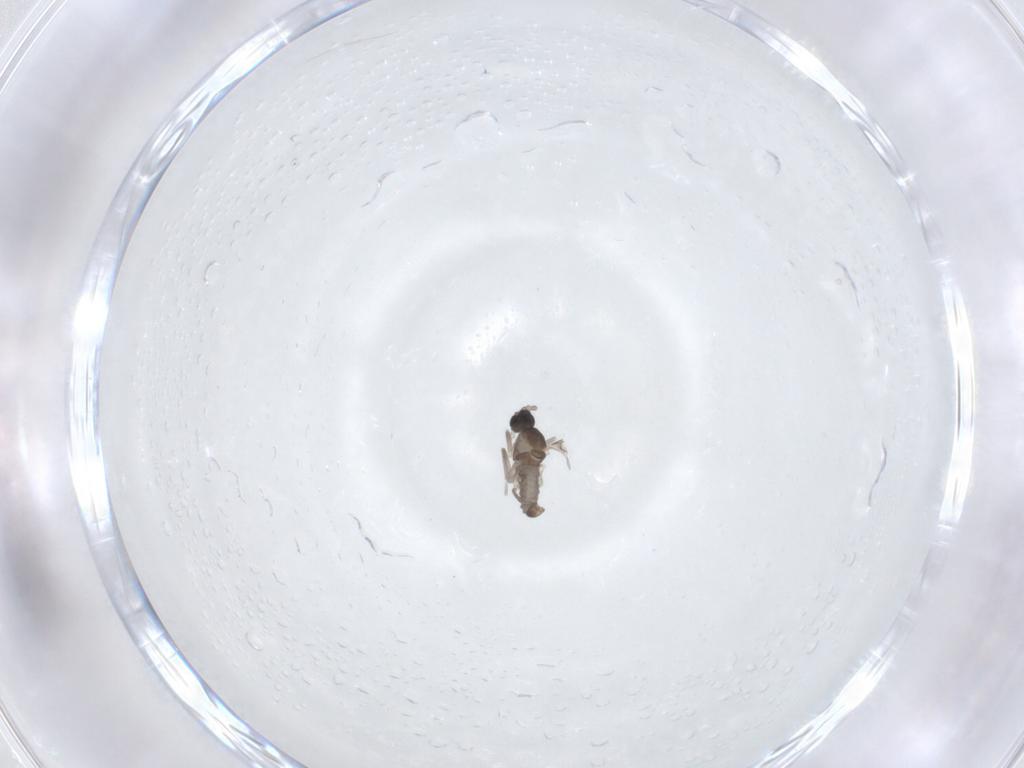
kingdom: Animalia
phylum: Arthropoda
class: Insecta
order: Diptera
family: Cecidomyiidae
